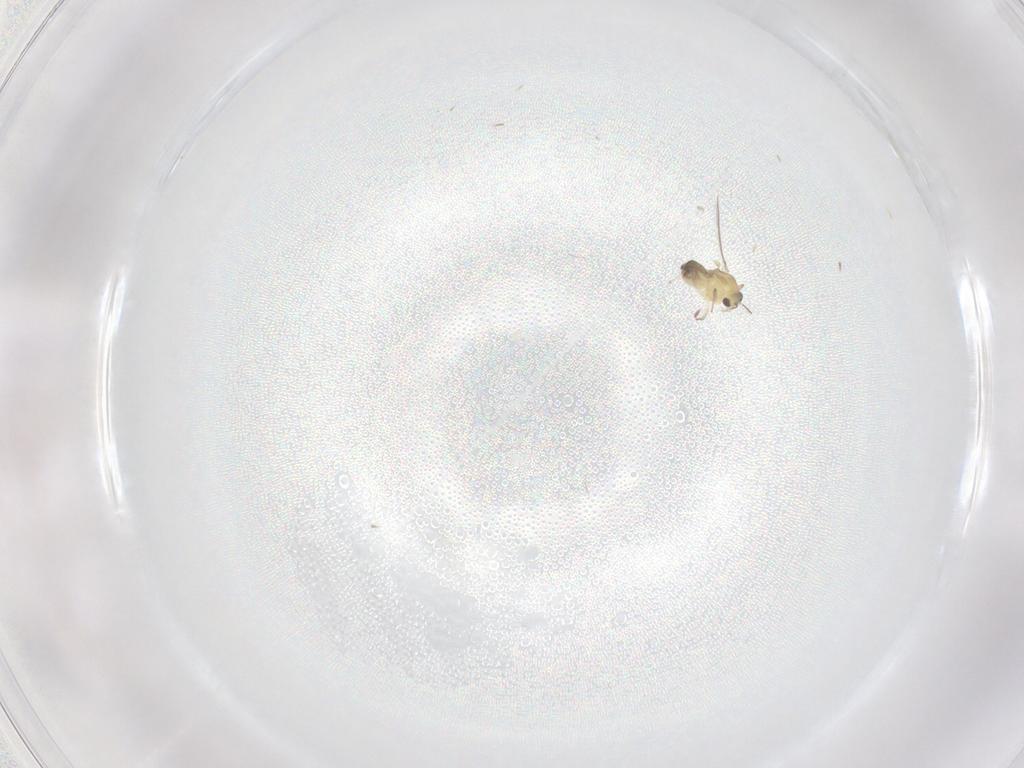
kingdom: Animalia
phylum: Arthropoda
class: Insecta
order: Diptera
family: Chironomidae
